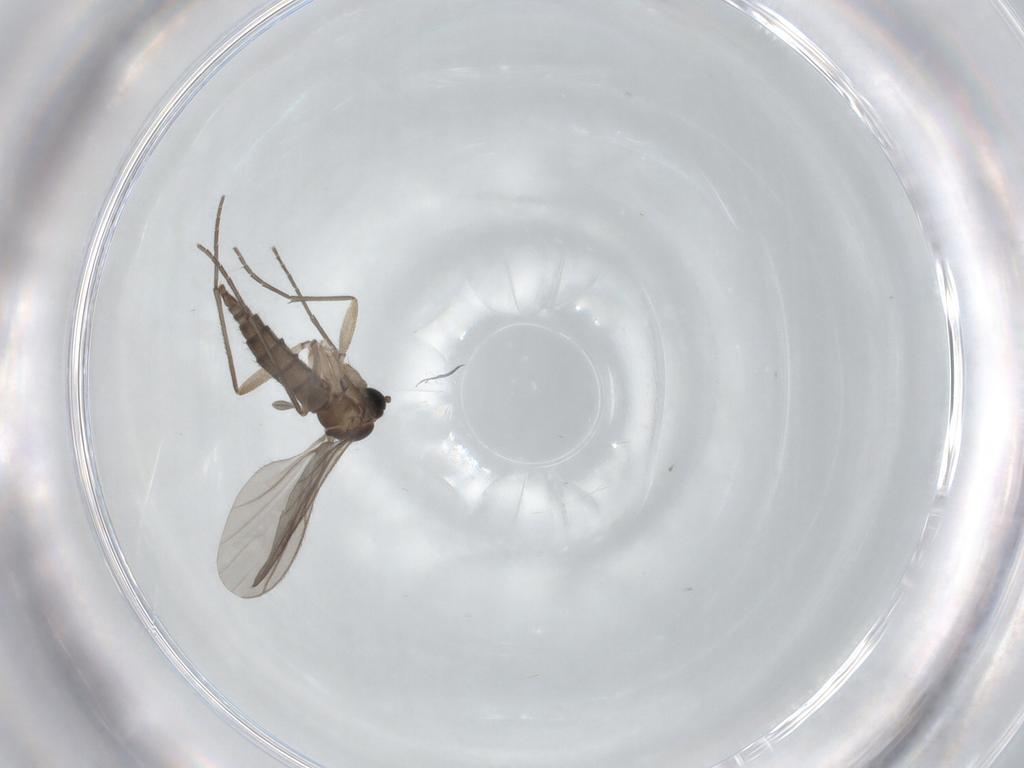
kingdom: Animalia
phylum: Arthropoda
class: Insecta
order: Diptera
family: Sciaridae
